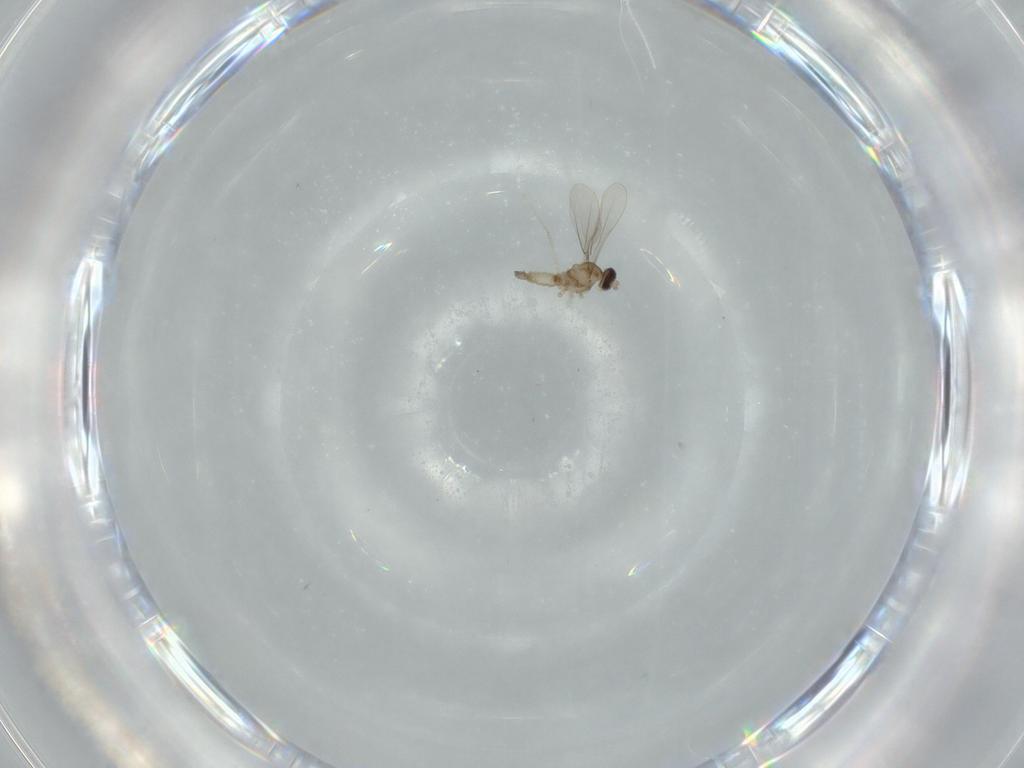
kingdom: Animalia
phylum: Arthropoda
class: Insecta
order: Diptera
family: Cecidomyiidae
